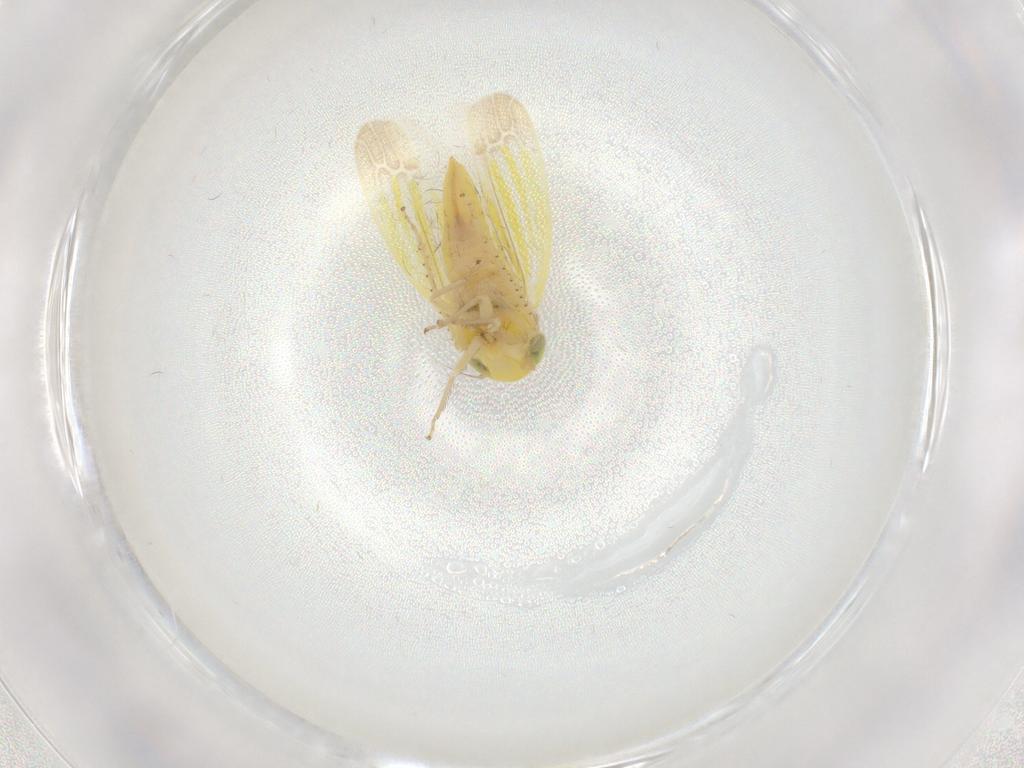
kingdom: Animalia
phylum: Arthropoda
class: Insecta
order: Hemiptera
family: Cicadellidae
